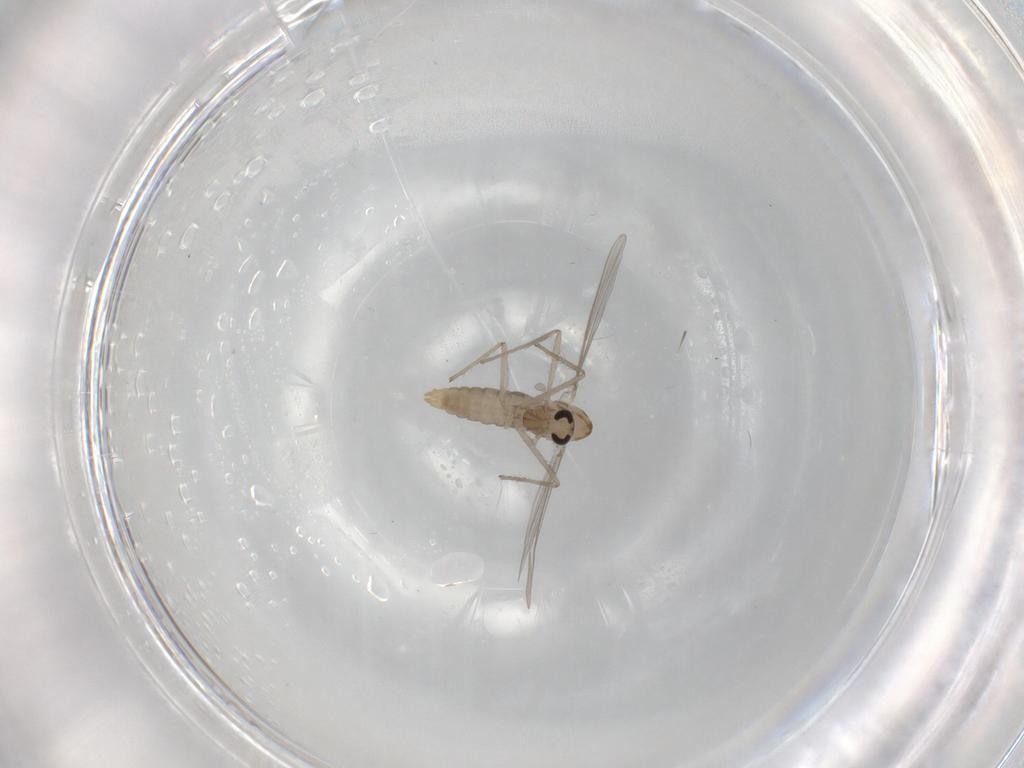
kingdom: Animalia
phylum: Arthropoda
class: Insecta
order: Diptera
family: Chironomidae
